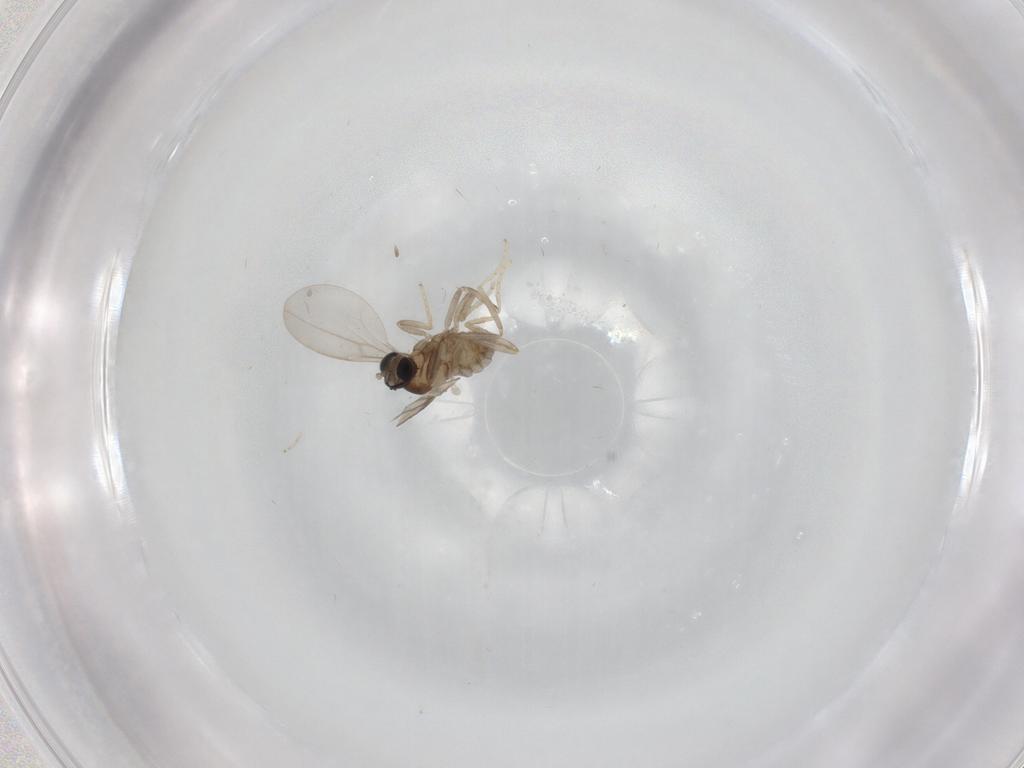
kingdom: Animalia
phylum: Arthropoda
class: Insecta
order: Diptera
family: Cecidomyiidae
